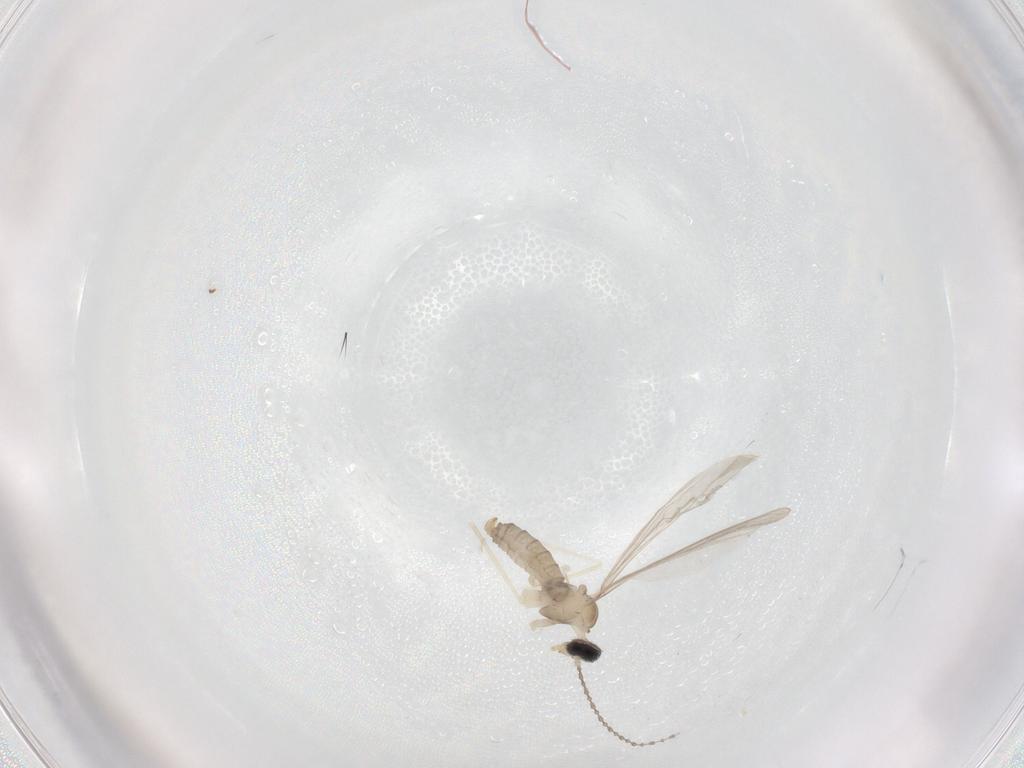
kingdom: Animalia
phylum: Arthropoda
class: Insecta
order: Diptera
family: Cecidomyiidae
